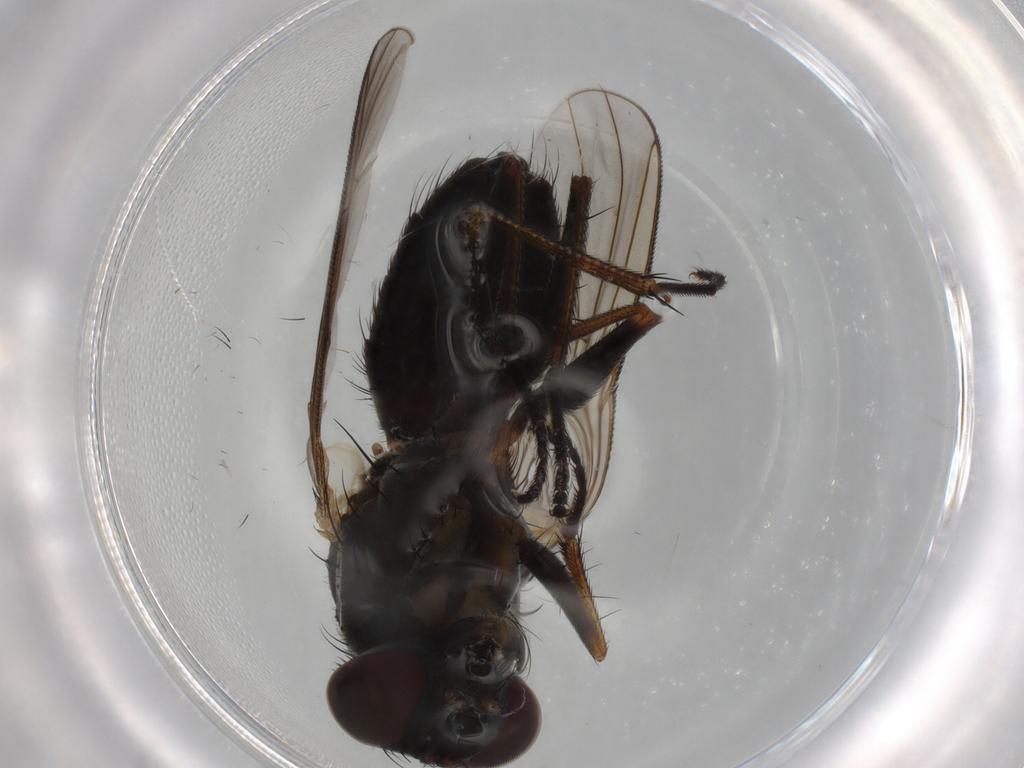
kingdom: Animalia
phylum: Arthropoda
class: Insecta
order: Diptera
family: Muscidae
